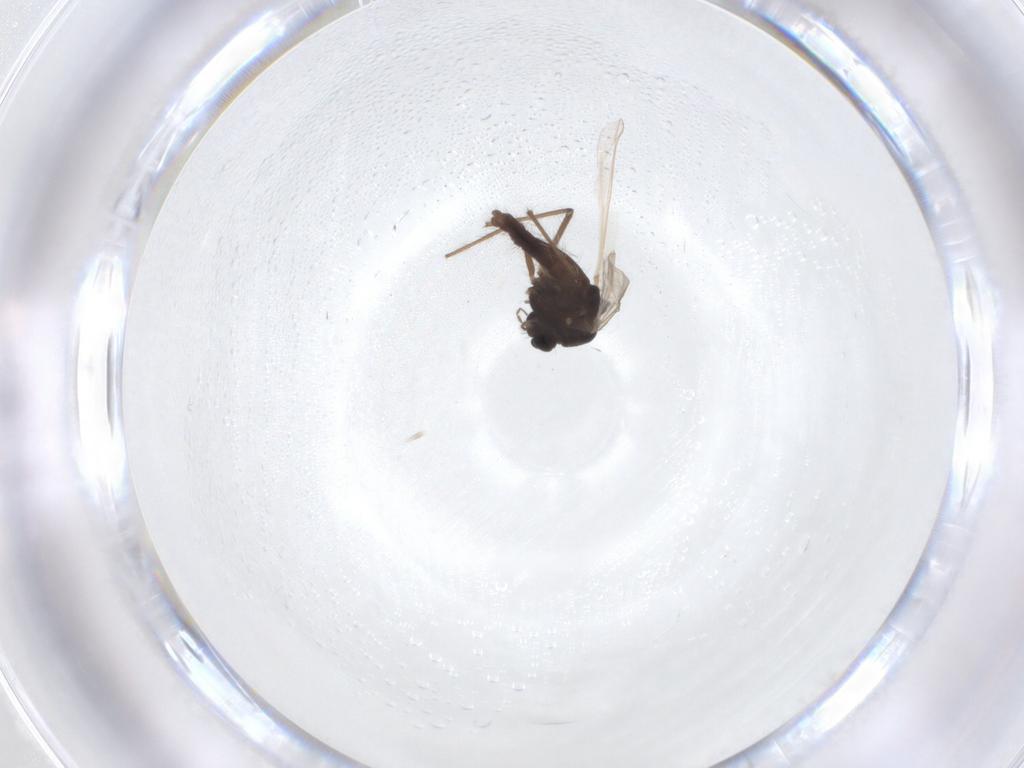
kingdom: Animalia
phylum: Arthropoda
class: Insecta
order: Diptera
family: Chironomidae
